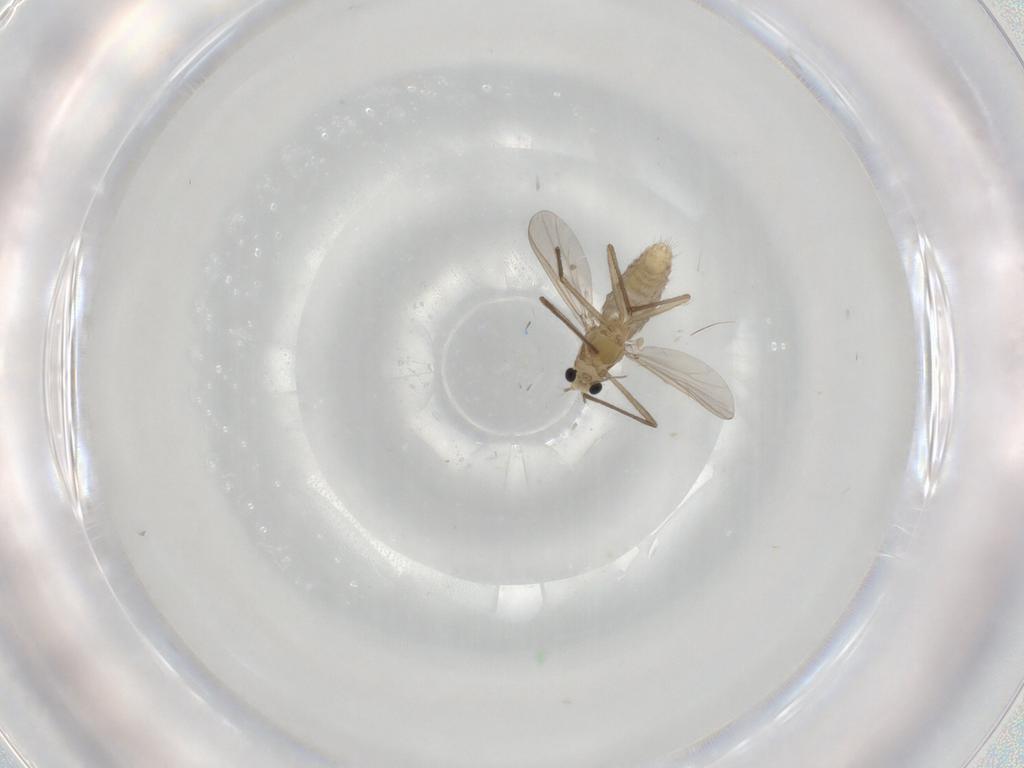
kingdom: Animalia
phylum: Arthropoda
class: Insecta
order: Diptera
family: Chironomidae
